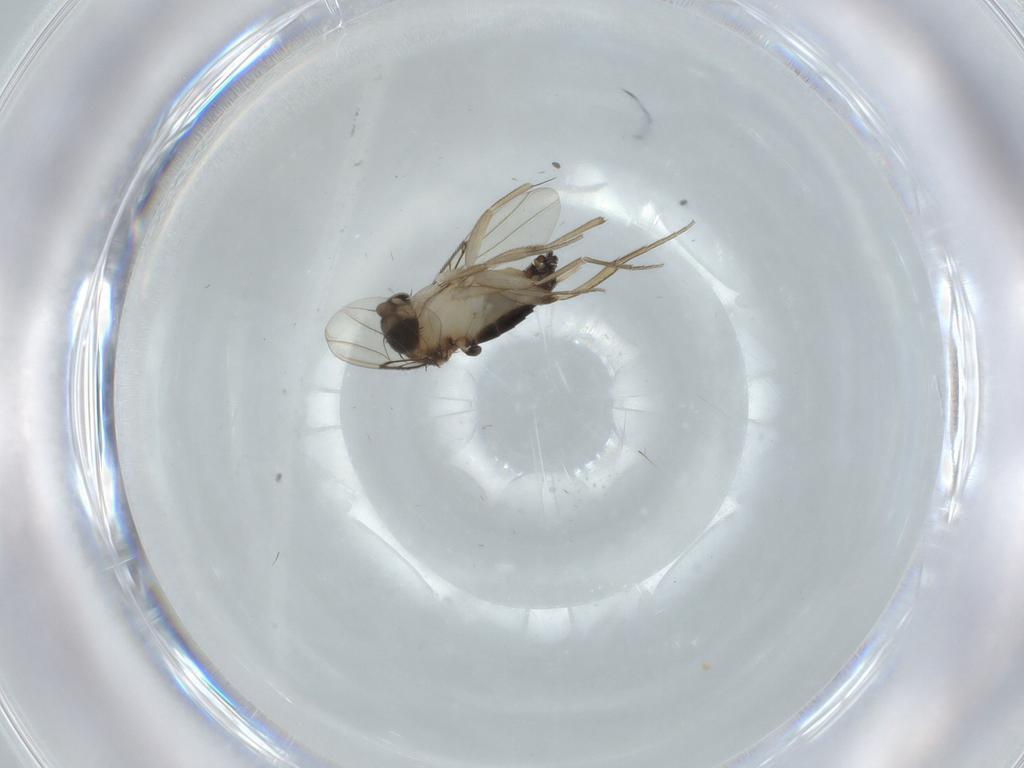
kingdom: Animalia
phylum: Arthropoda
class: Insecta
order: Diptera
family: Phoridae
